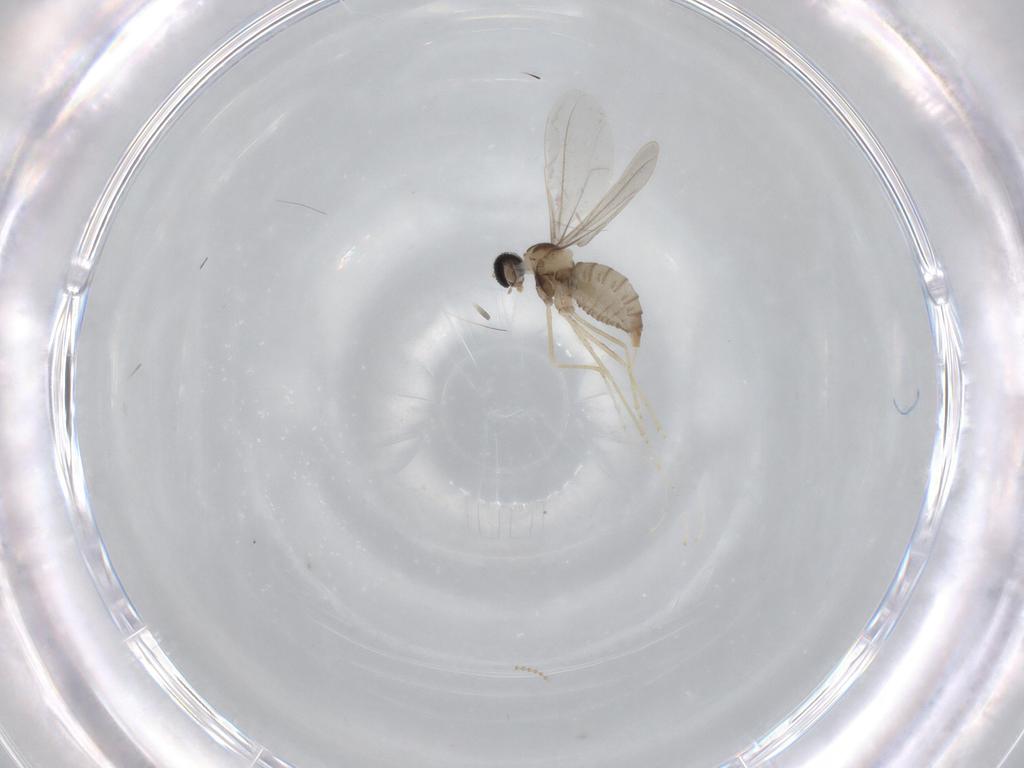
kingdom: Animalia
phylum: Arthropoda
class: Insecta
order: Diptera
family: Cecidomyiidae
